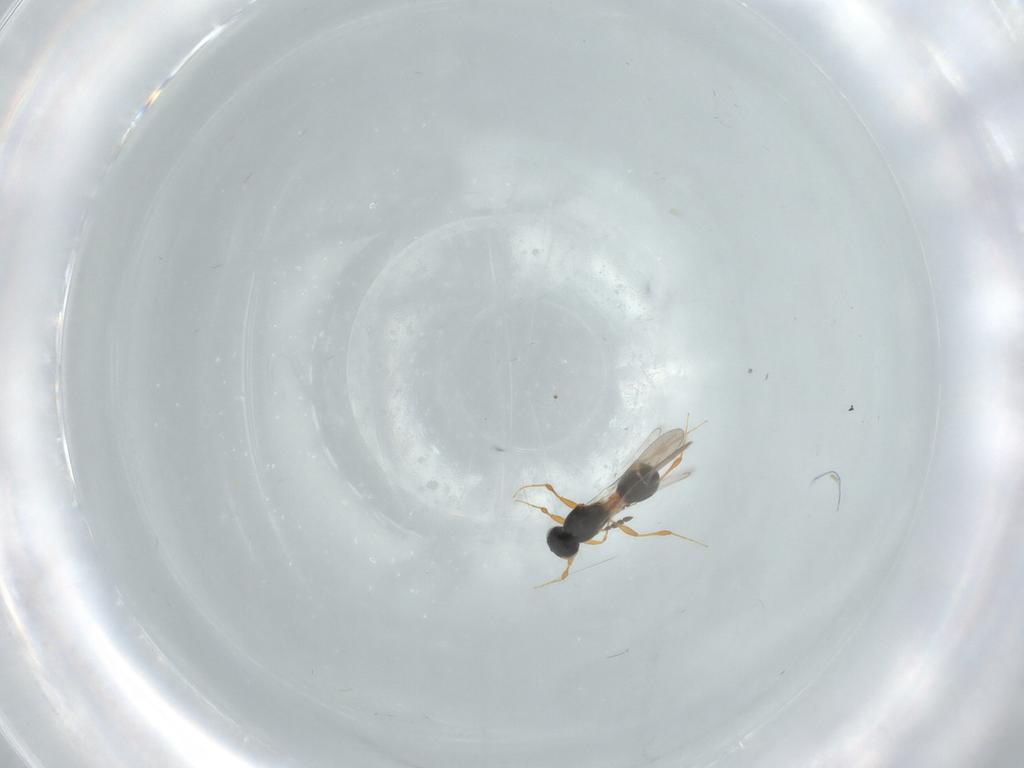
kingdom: Animalia
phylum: Arthropoda
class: Insecta
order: Hymenoptera
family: Platygastridae
